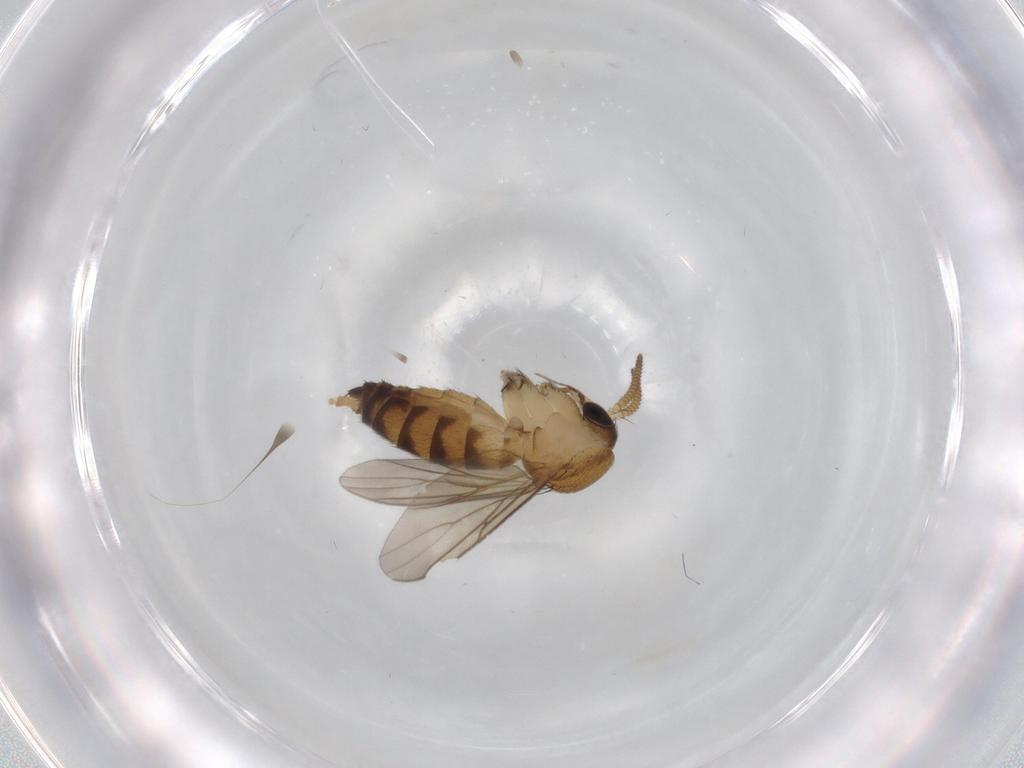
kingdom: Animalia
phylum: Arthropoda
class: Insecta
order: Diptera
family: Mycetophilidae
